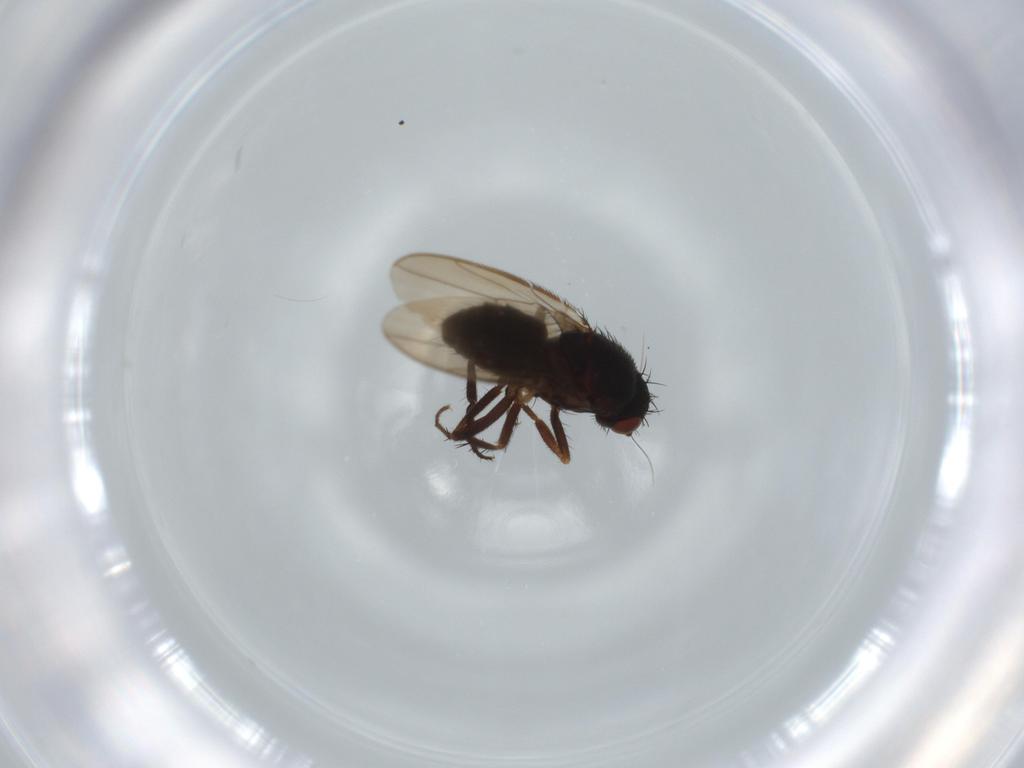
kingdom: Animalia
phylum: Arthropoda
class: Insecta
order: Diptera
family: Sphaeroceridae
